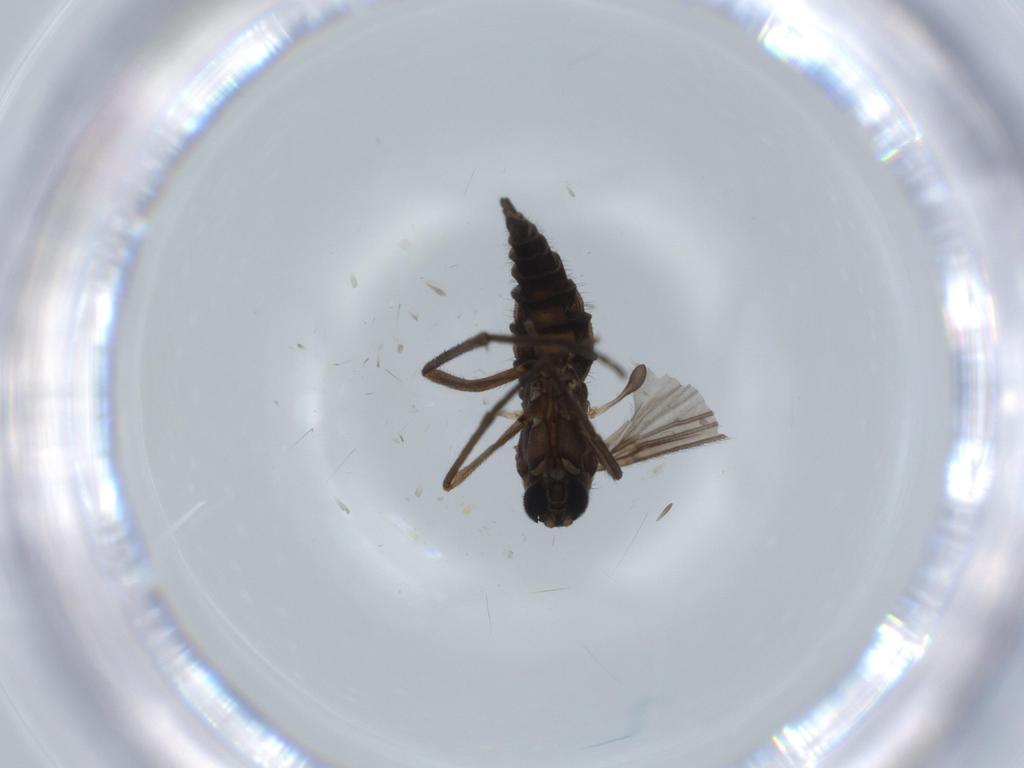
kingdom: Animalia
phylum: Arthropoda
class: Insecta
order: Diptera
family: Sciaridae
